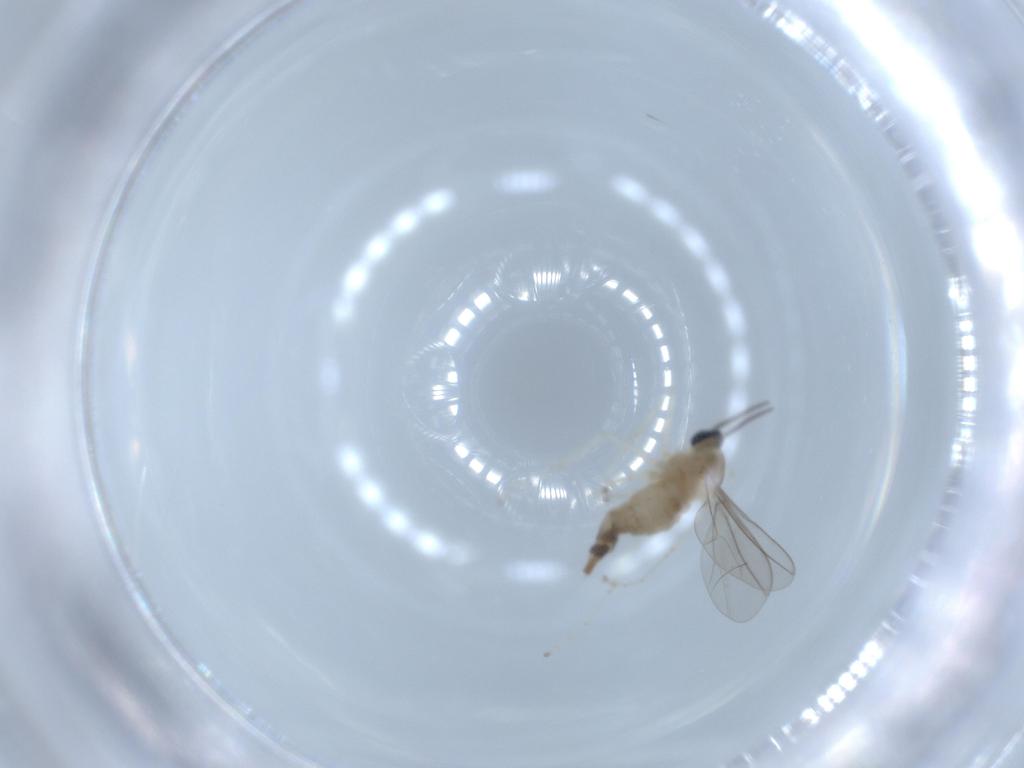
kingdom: Animalia
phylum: Arthropoda
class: Insecta
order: Diptera
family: Cecidomyiidae
